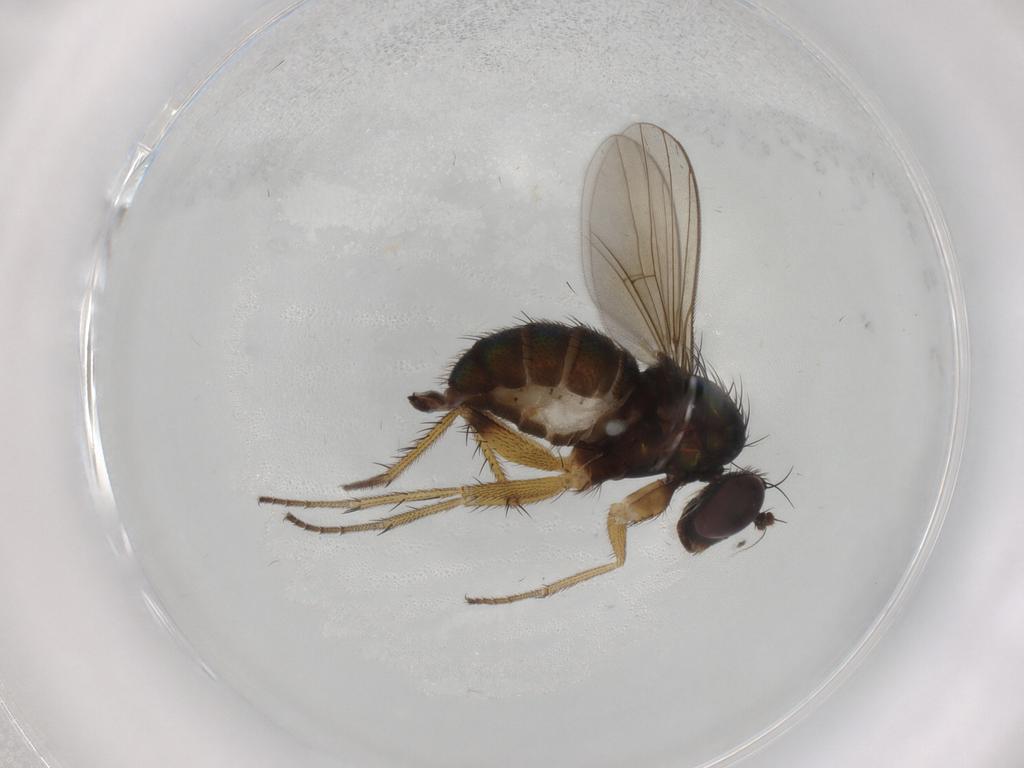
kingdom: Animalia
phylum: Arthropoda
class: Insecta
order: Diptera
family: Dolichopodidae
